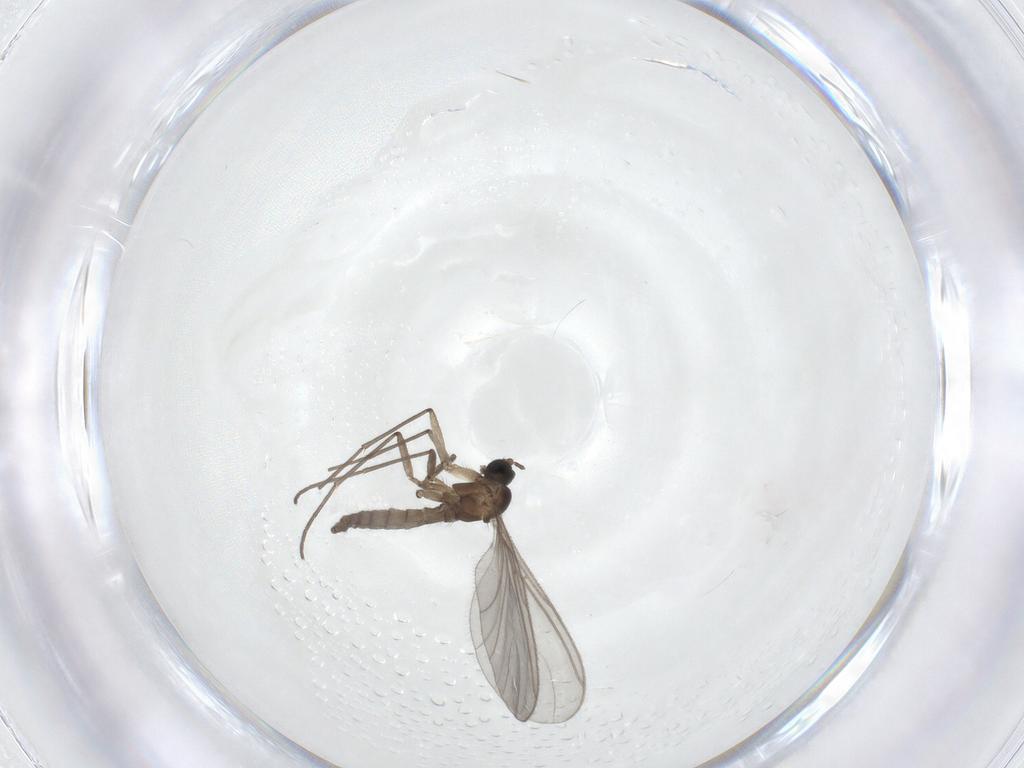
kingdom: Animalia
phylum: Arthropoda
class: Insecta
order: Diptera
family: Sciaridae
